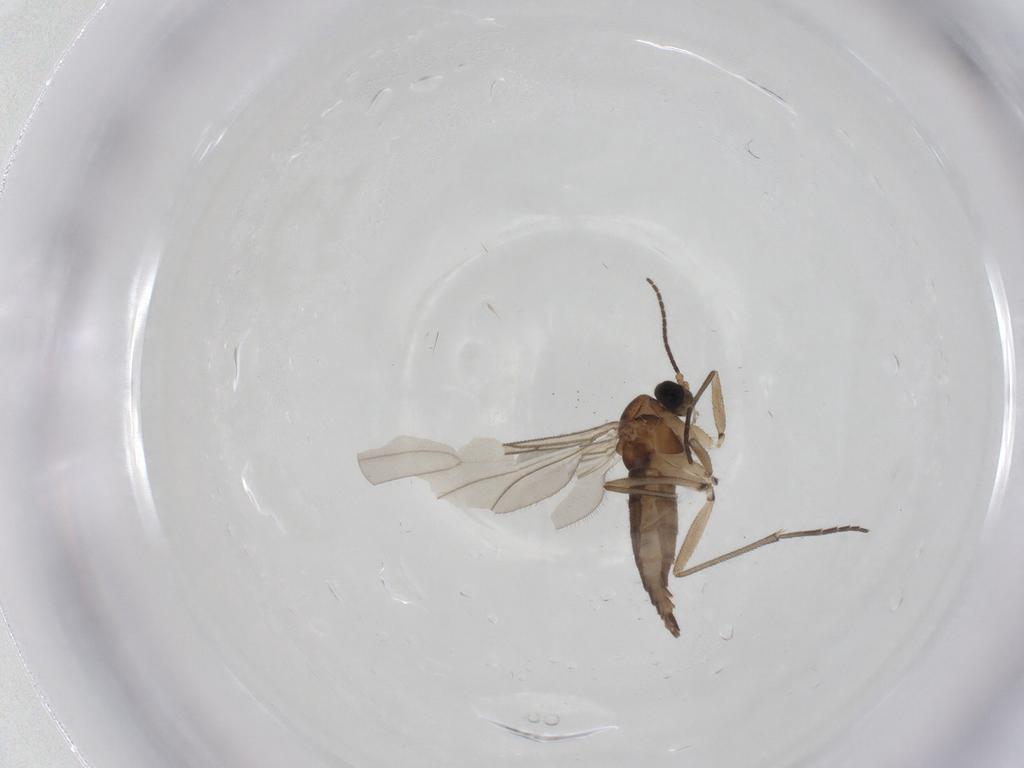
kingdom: Animalia
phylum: Arthropoda
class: Insecta
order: Diptera
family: Sciaridae
